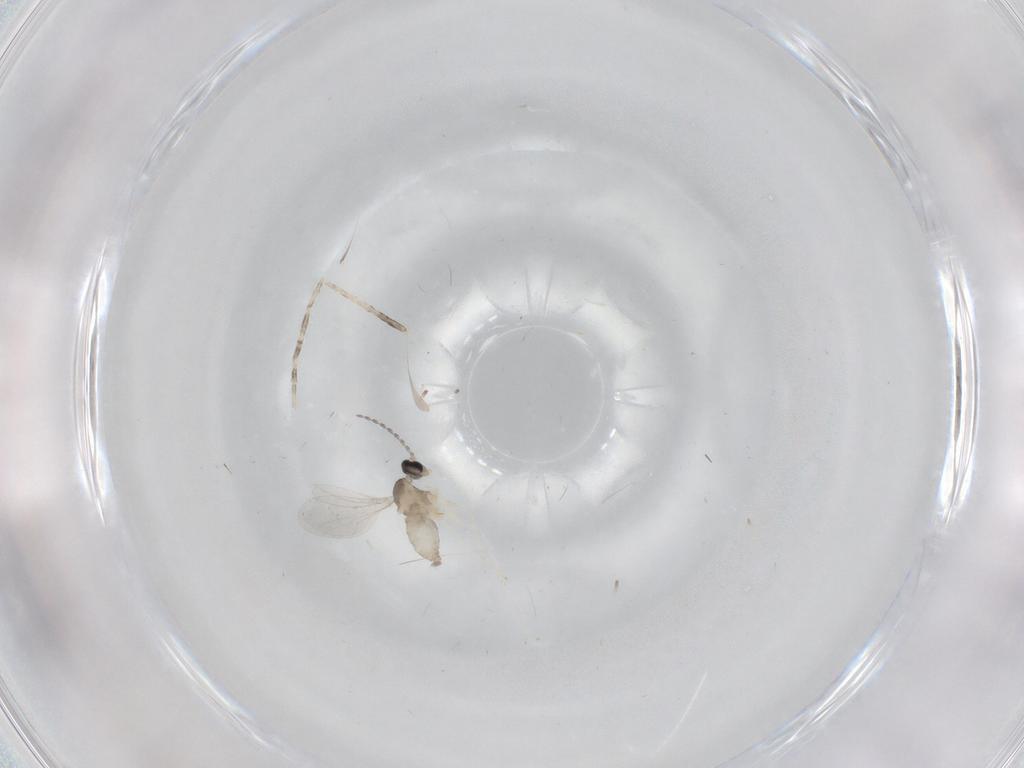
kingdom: Animalia
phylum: Arthropoda
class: Insecta
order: Diptera
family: Cecidomyiidae
